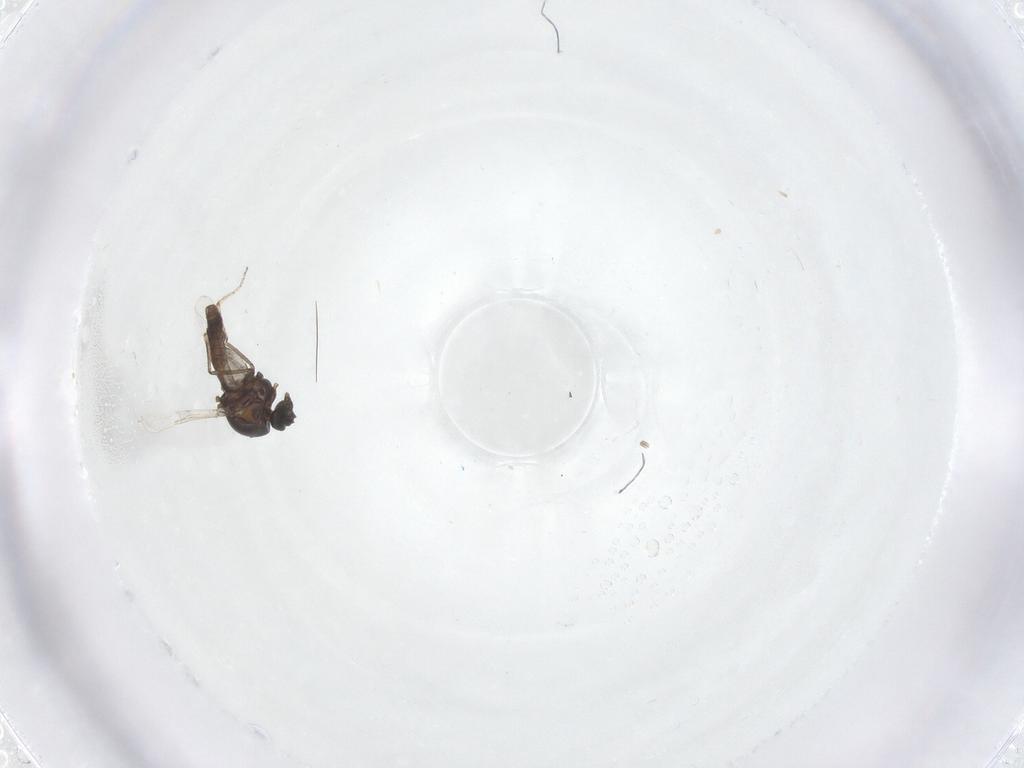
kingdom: Animalia
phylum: Arthropoda
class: Insecta
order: Diptera
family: Ceratopogonidae
